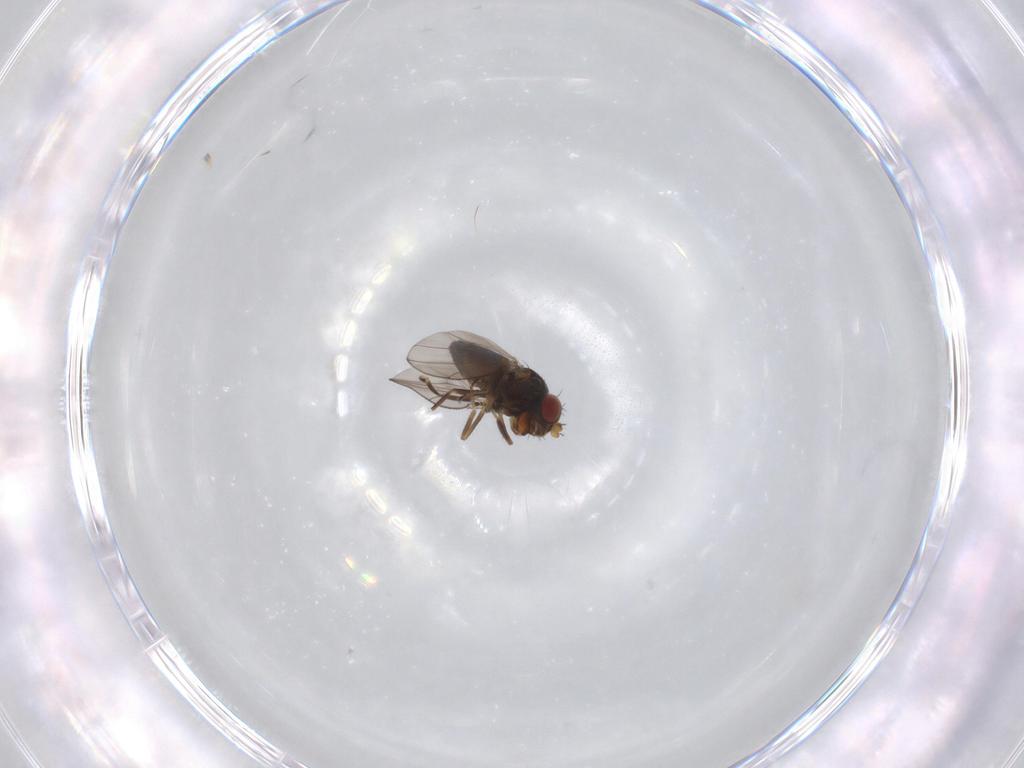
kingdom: Animalia
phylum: Arthropoda
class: Insecta
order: Diptera
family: Ephydridae
